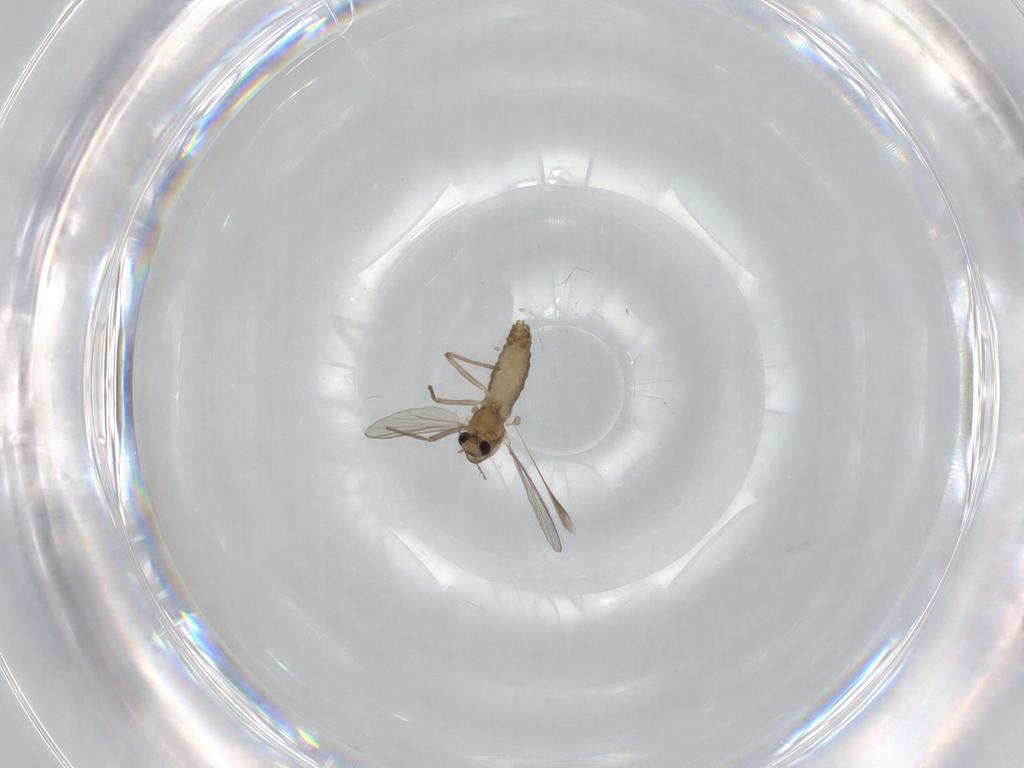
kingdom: Animalia
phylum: Arthropoda
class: Insecta
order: Diptera
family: Chironomidae
